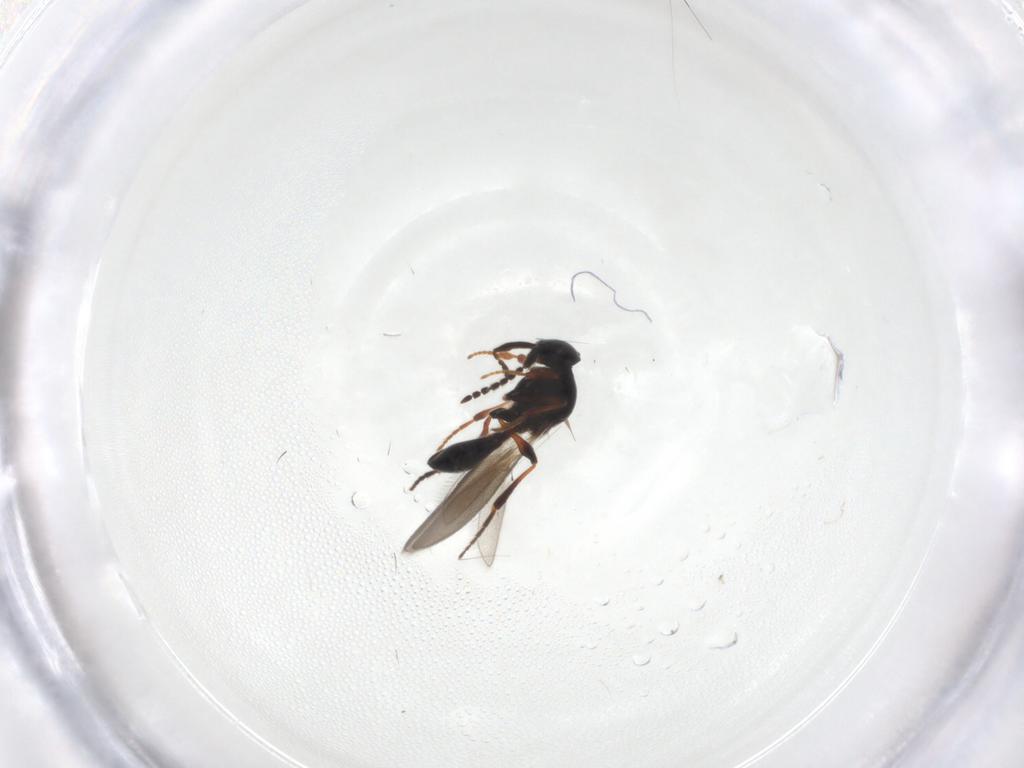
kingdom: Animalia
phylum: Arthropoda
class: Insecta
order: Hymenoptera
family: Platygastridae
